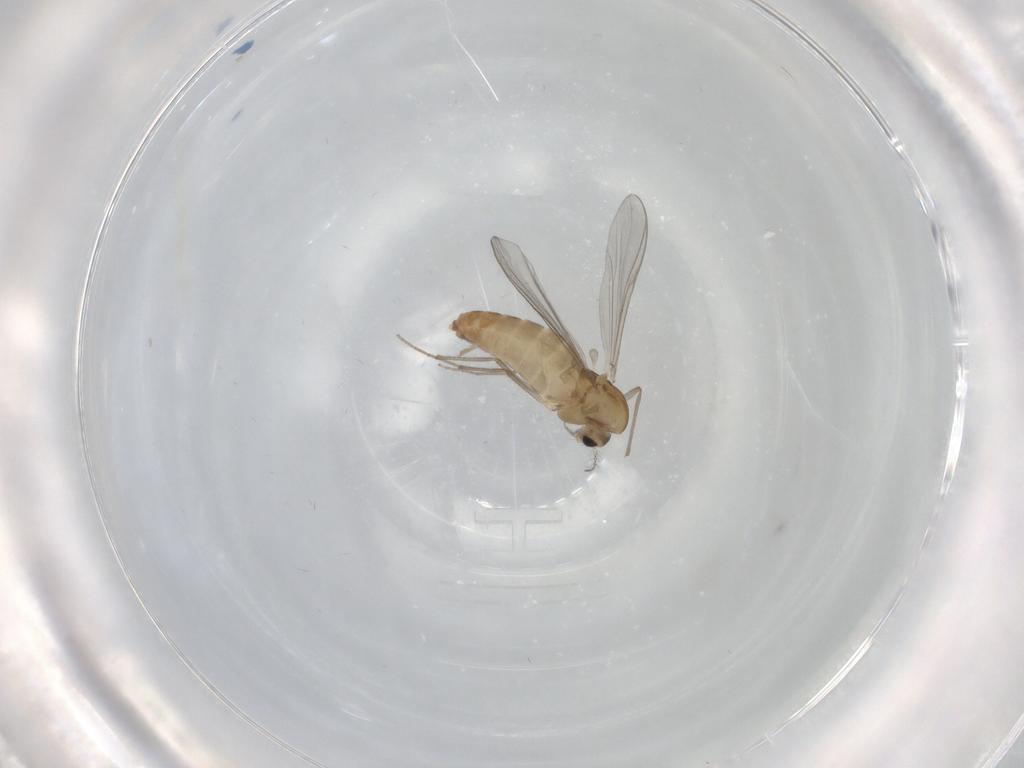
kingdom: Animalia
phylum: Arthropoda
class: Insecta
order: Diptera
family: Chironomidae
